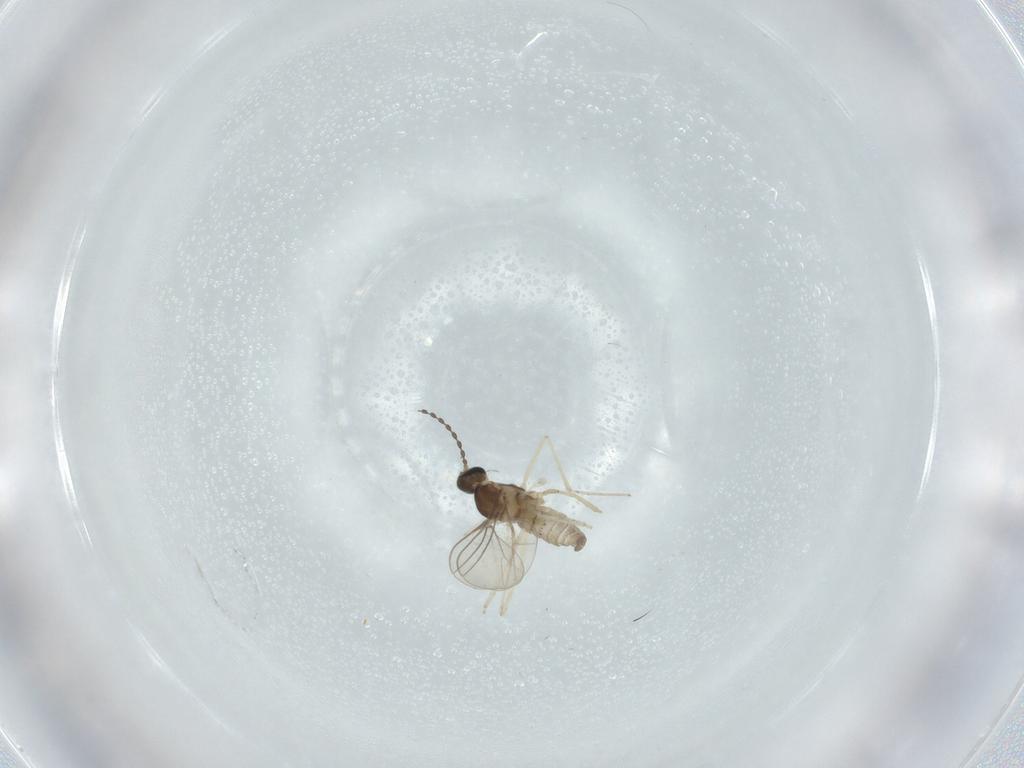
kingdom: Animalia
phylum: Arthropoda
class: Insecta
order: Diptera
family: Cecidomyiidae
